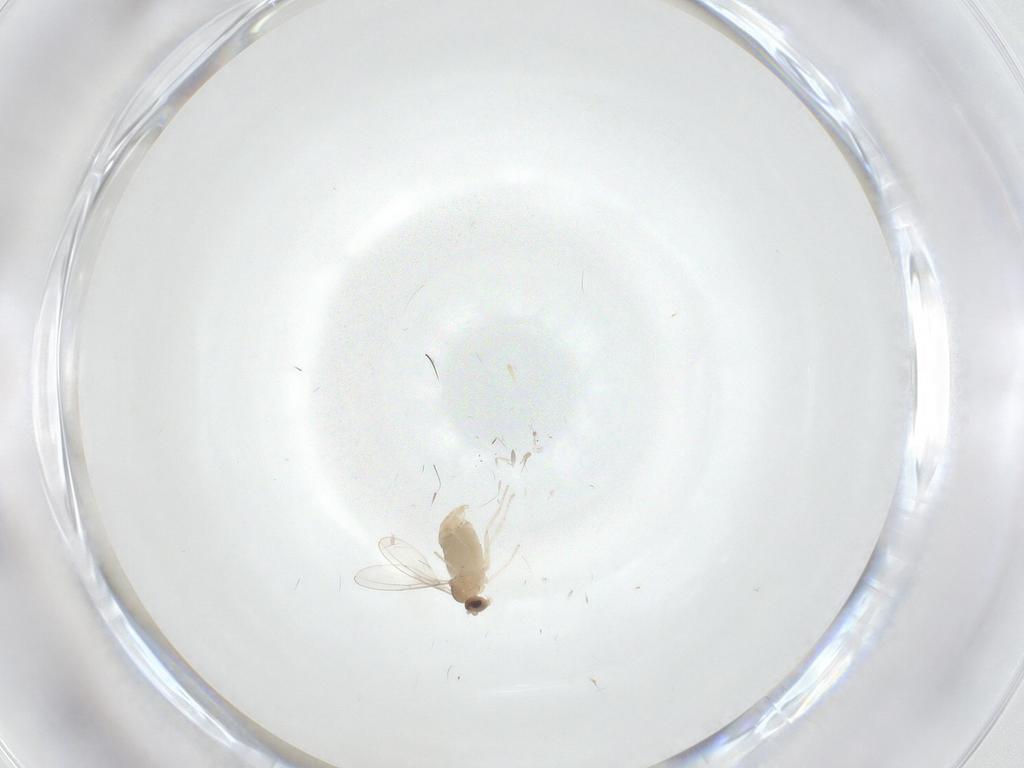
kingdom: Animalia
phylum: Arthropoda
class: Insecta
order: Diptera
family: Cecidomyiidae
